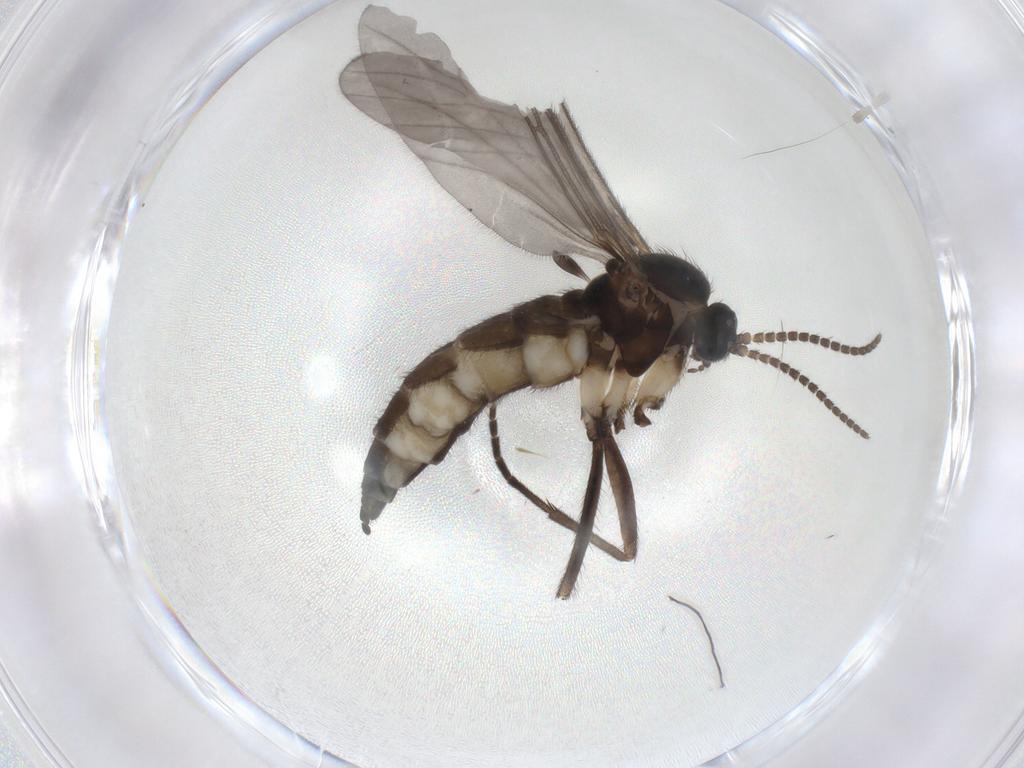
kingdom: Animalia
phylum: Arthropoda
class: Insecta
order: Diptera
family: Sciaridae
